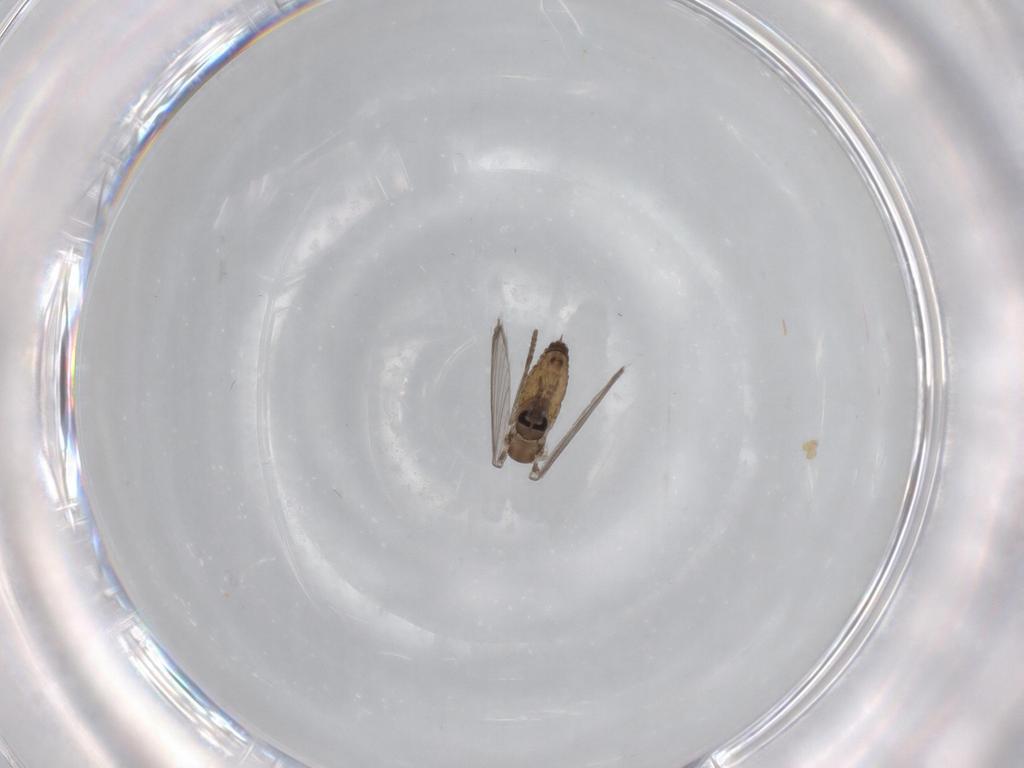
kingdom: Animalia
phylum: Arthropoda
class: Insecta
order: Diptera
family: Psychodidae
